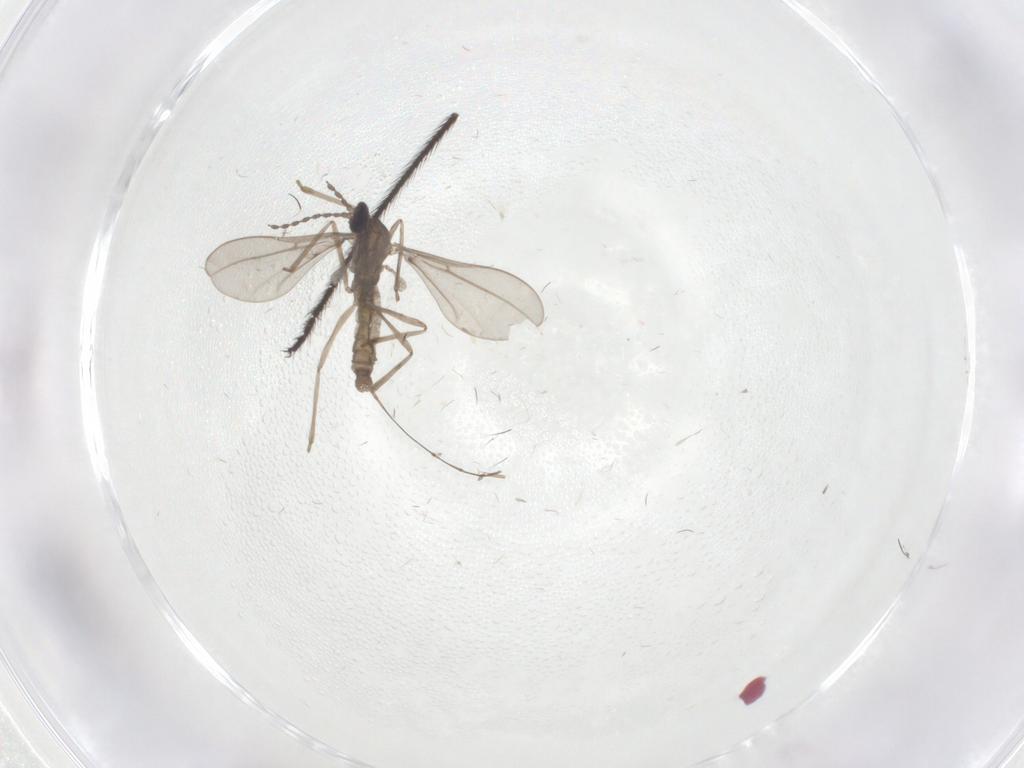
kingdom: Animalia
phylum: Arthropoda
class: Insecta
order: Diptera
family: Limoniidae
